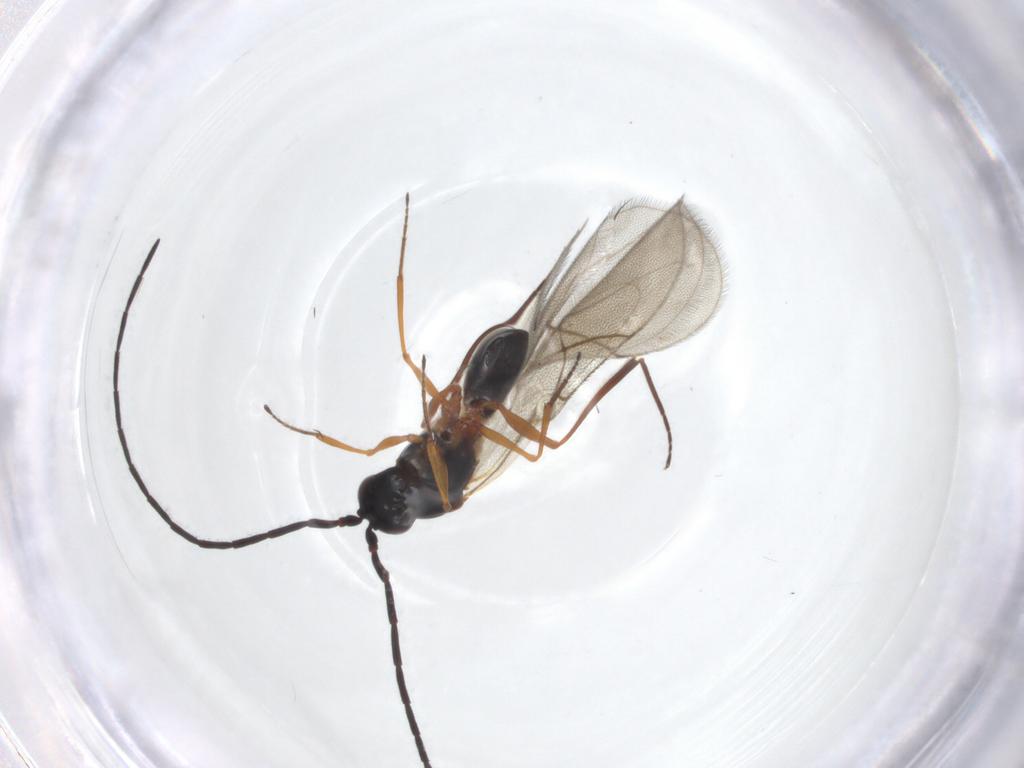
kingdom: Animalia
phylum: Arthropoda
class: Insecta
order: Hymenoptera
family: Figitidae
